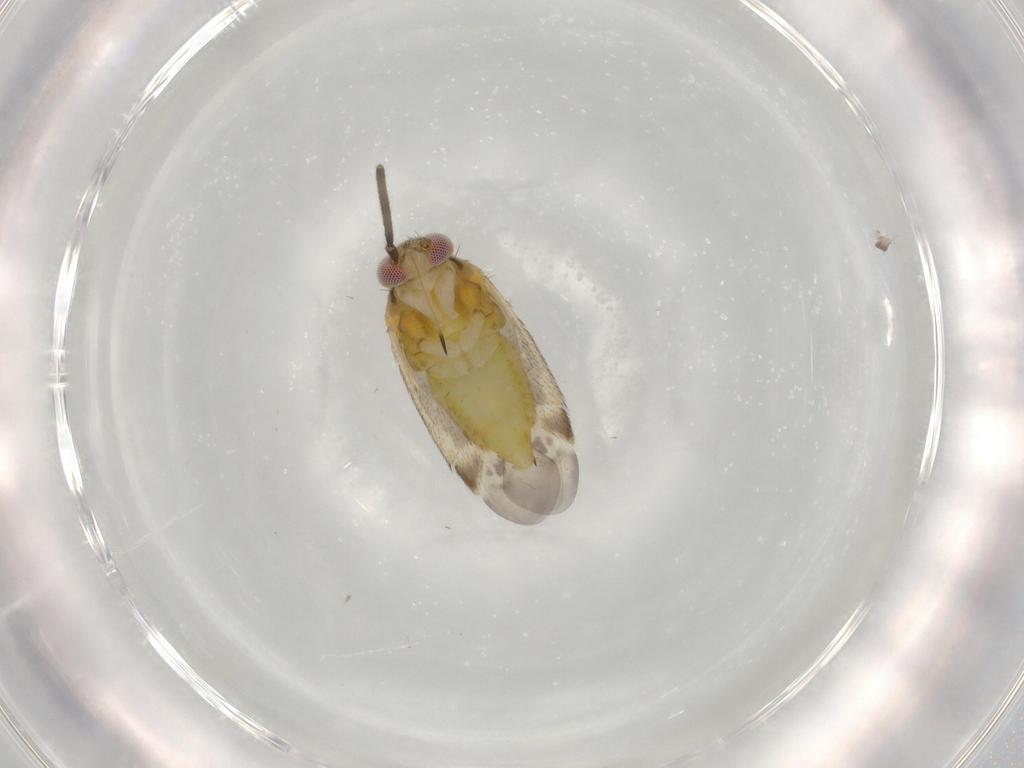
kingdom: Animalia
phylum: Arthropoda
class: Insecta
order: Hemiptera
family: Miridae
